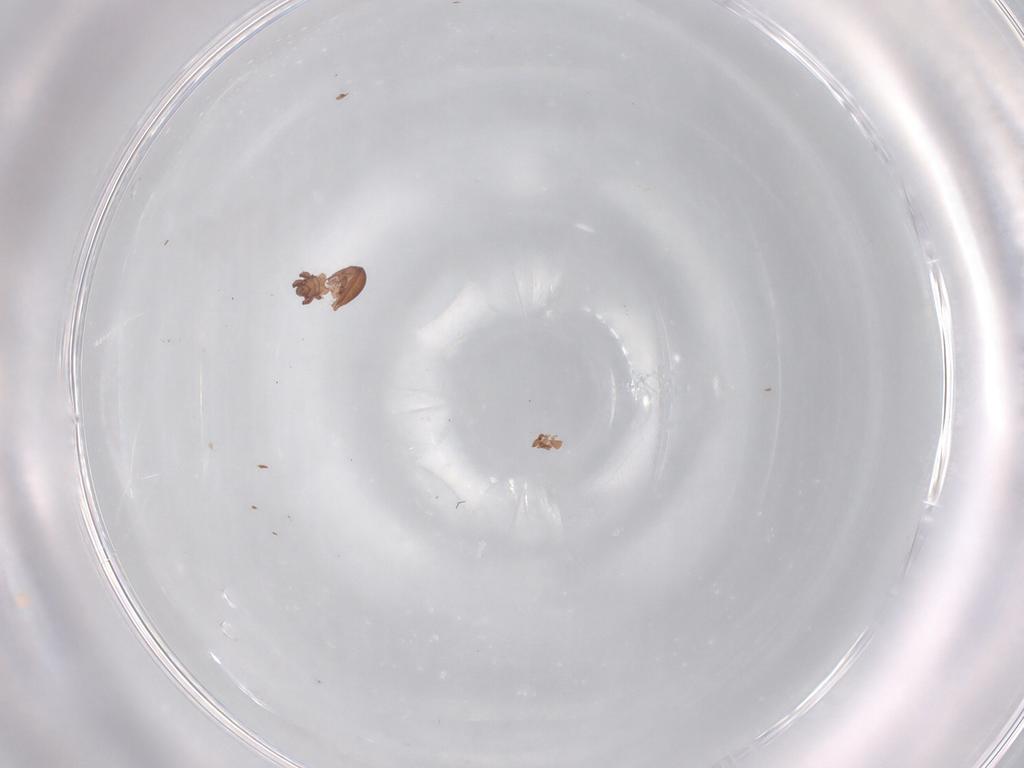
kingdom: Animalia
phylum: Arthropoda
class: Arachnida
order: Sarcoptiformes
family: Eremaeidae
